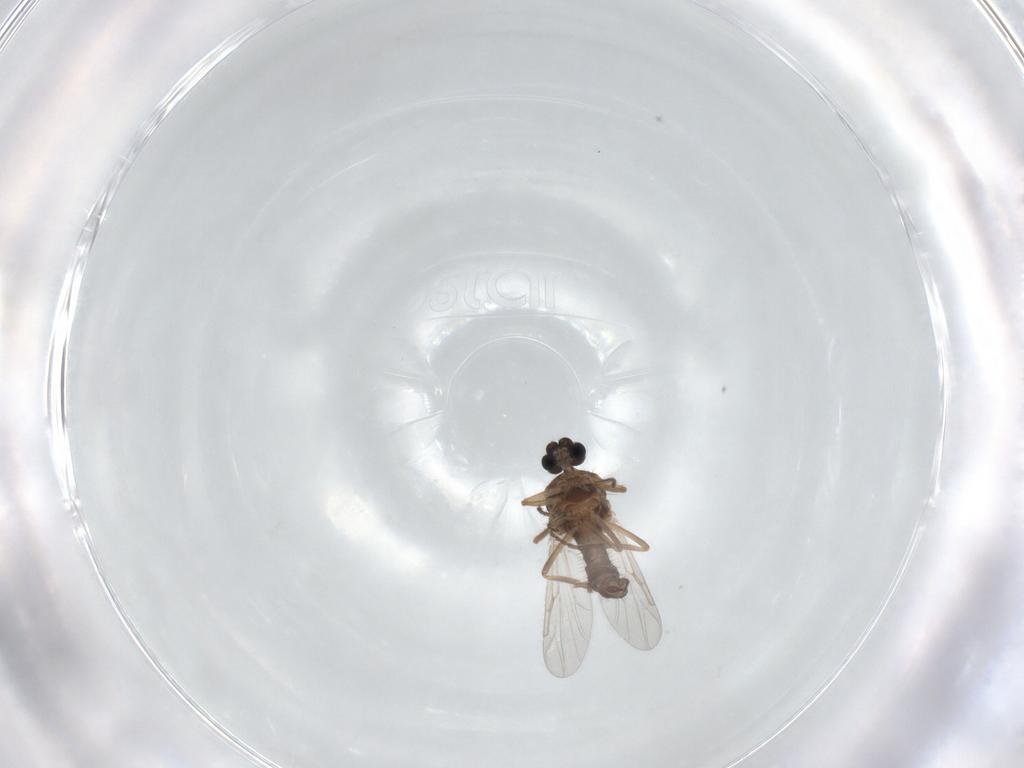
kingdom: Animalia
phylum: Arthropoda
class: Insecta
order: Diptera
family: Ceratopogonidae
